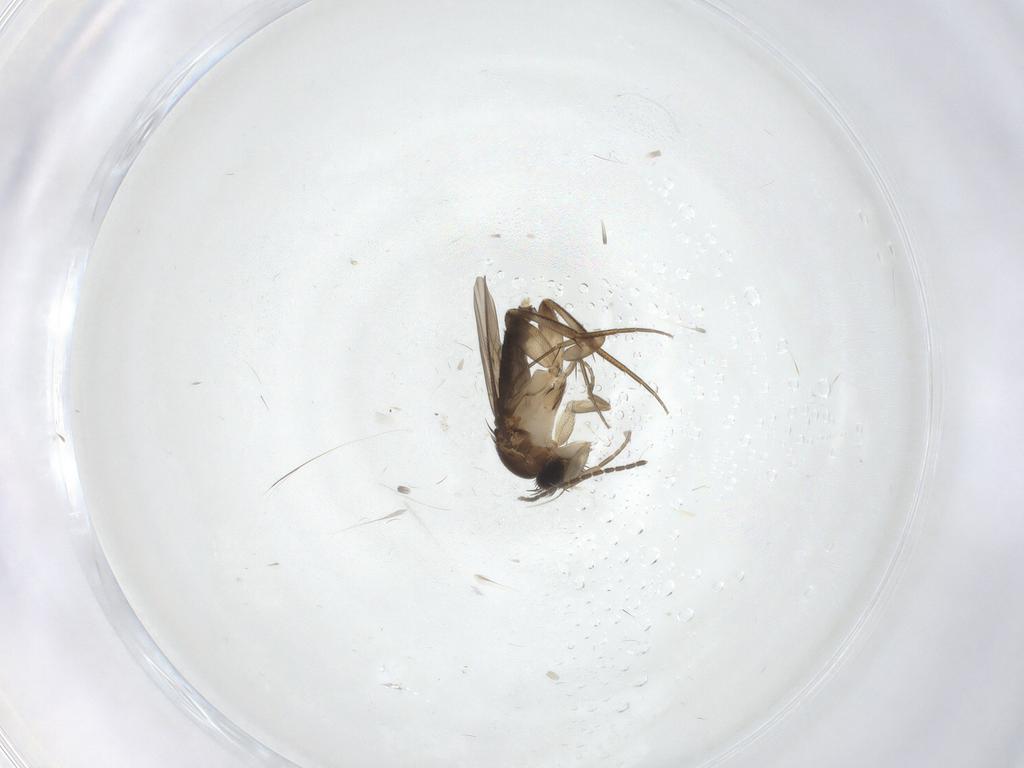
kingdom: Animalia
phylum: Arthropoda
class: Insecta
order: Diptera
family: Phoridae
